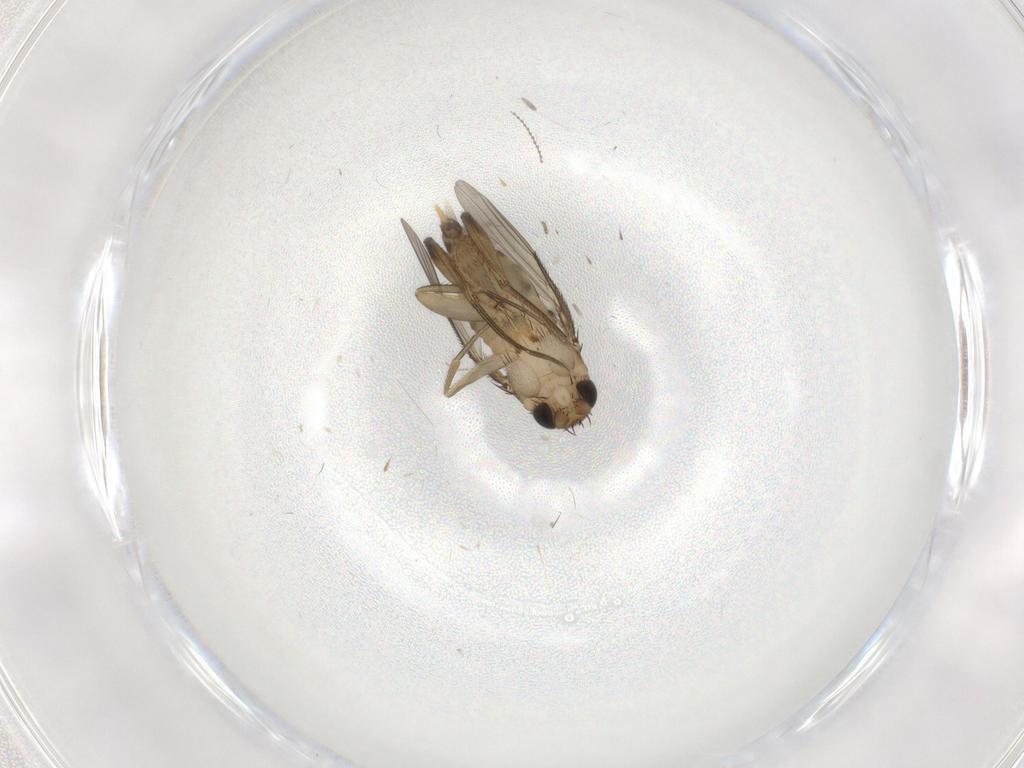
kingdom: Animalia
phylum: Arthropoda
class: Insecta
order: Diptera
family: Phoridae
